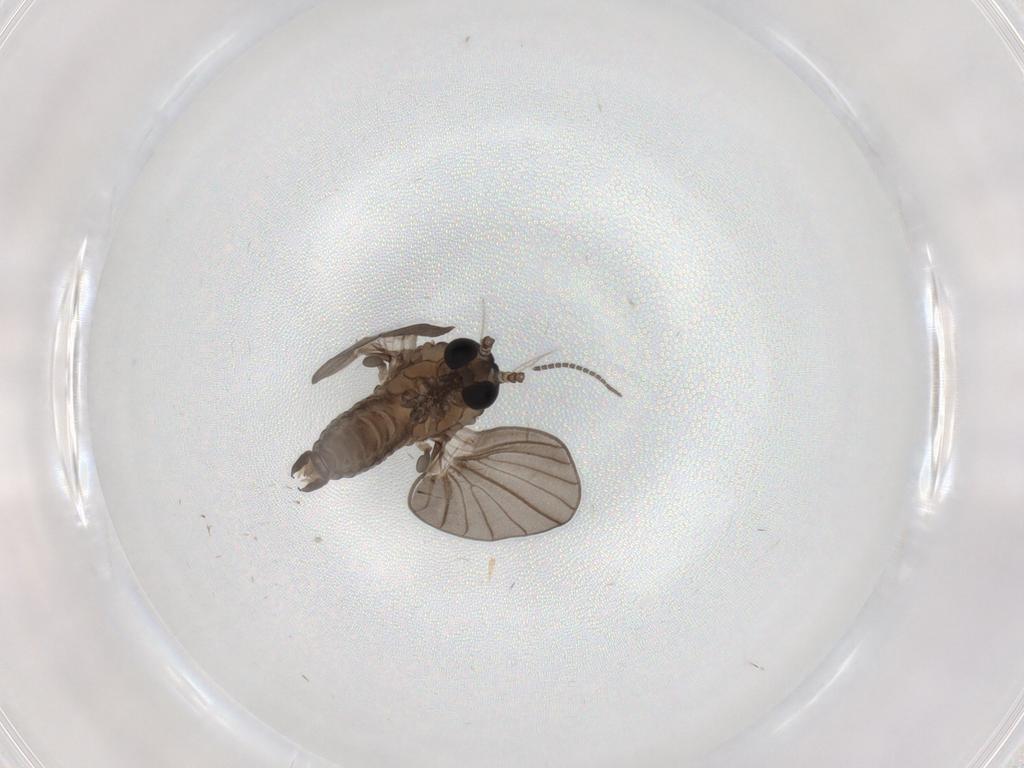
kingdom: Animalia
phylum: Arthropoda
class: Insecta
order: Diptera
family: Sciaridae
